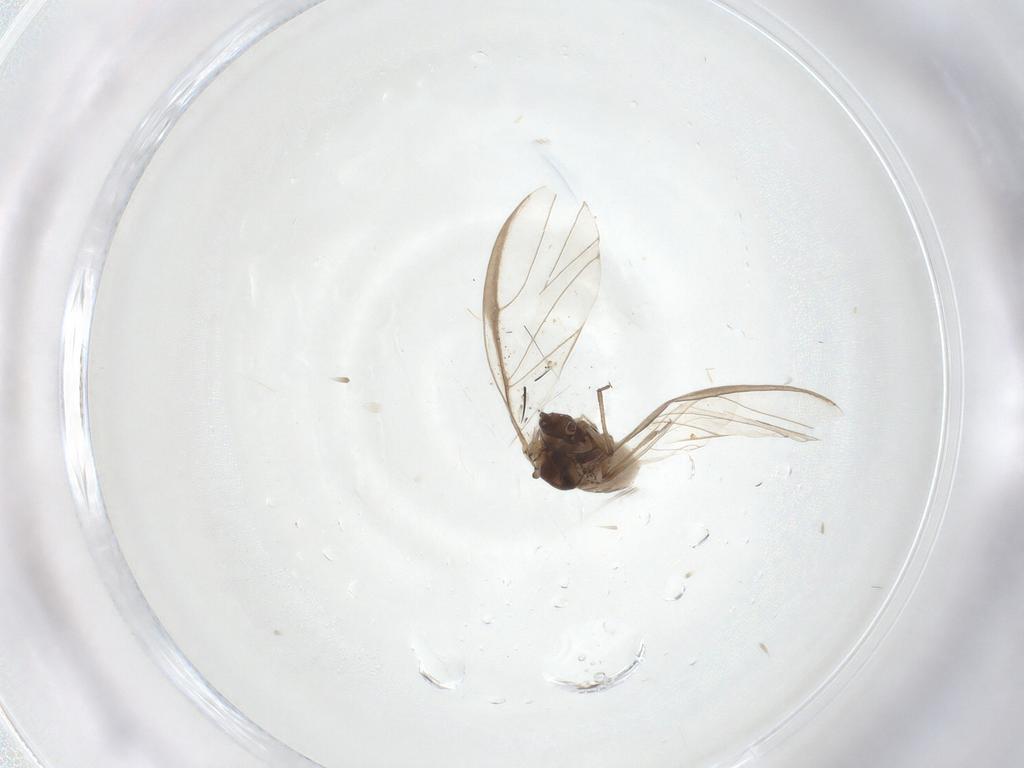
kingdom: Animalia
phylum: Arthropoda
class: Insecta
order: Hemiptera
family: Aphididae
